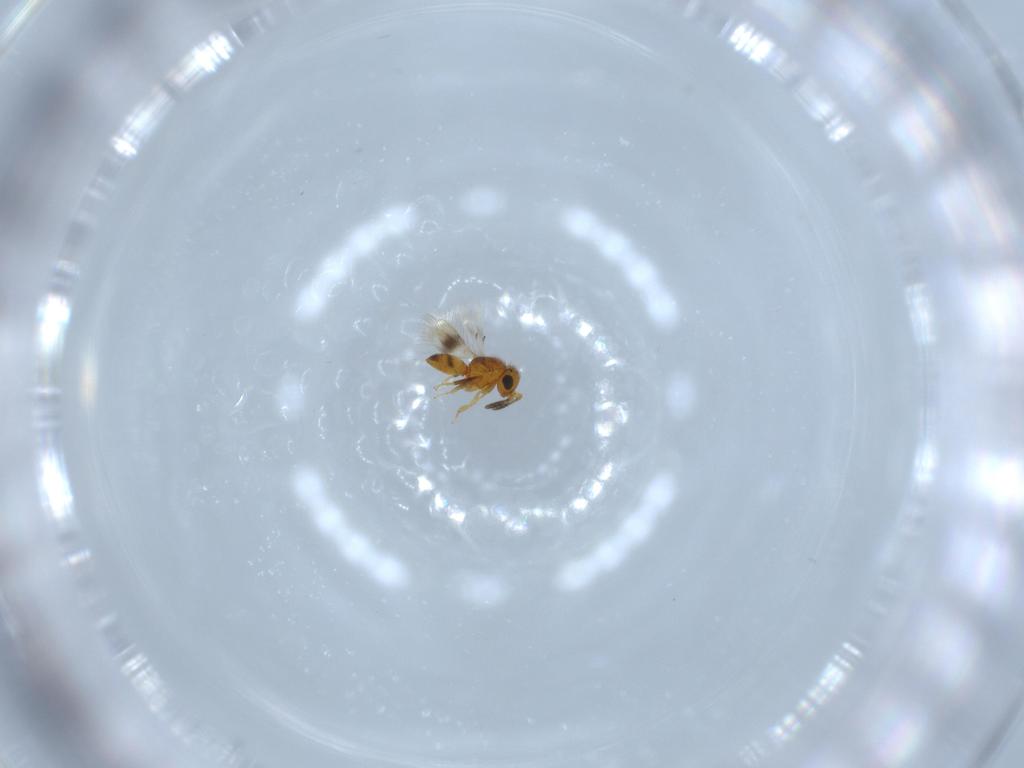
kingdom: Animalia
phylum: Arthropoda
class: Insecta
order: Hymenoptera
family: Scelionidae
